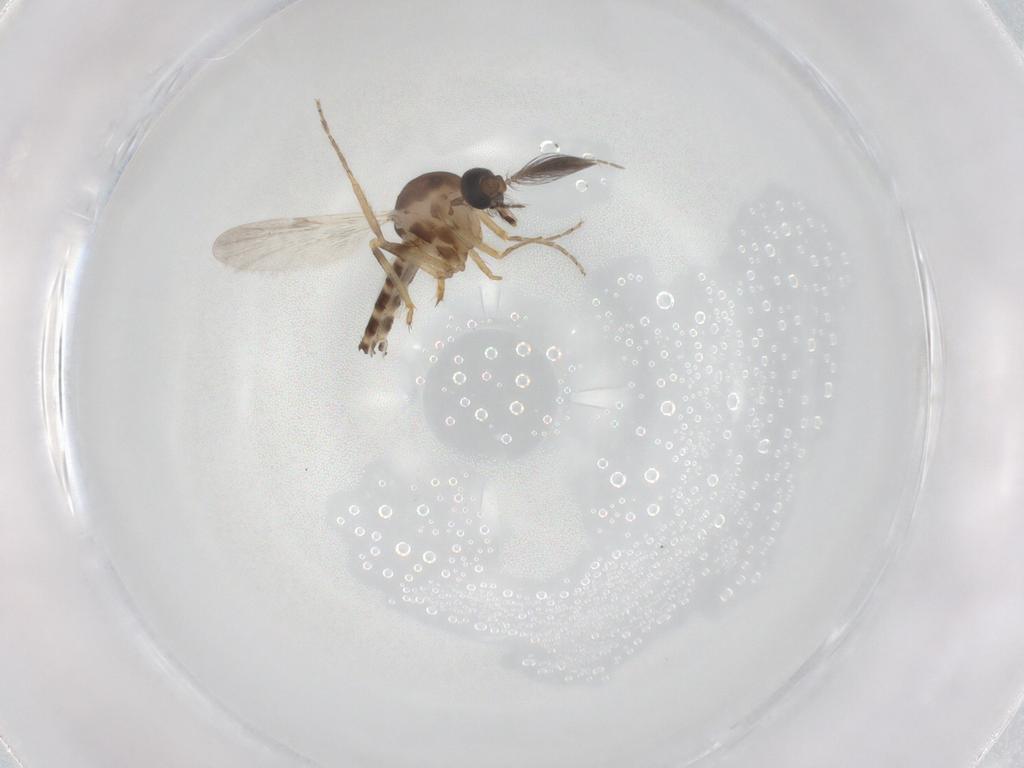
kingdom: Animalia
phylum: Arthropoda
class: Insecta
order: Diptera
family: Ceratopogonidae
